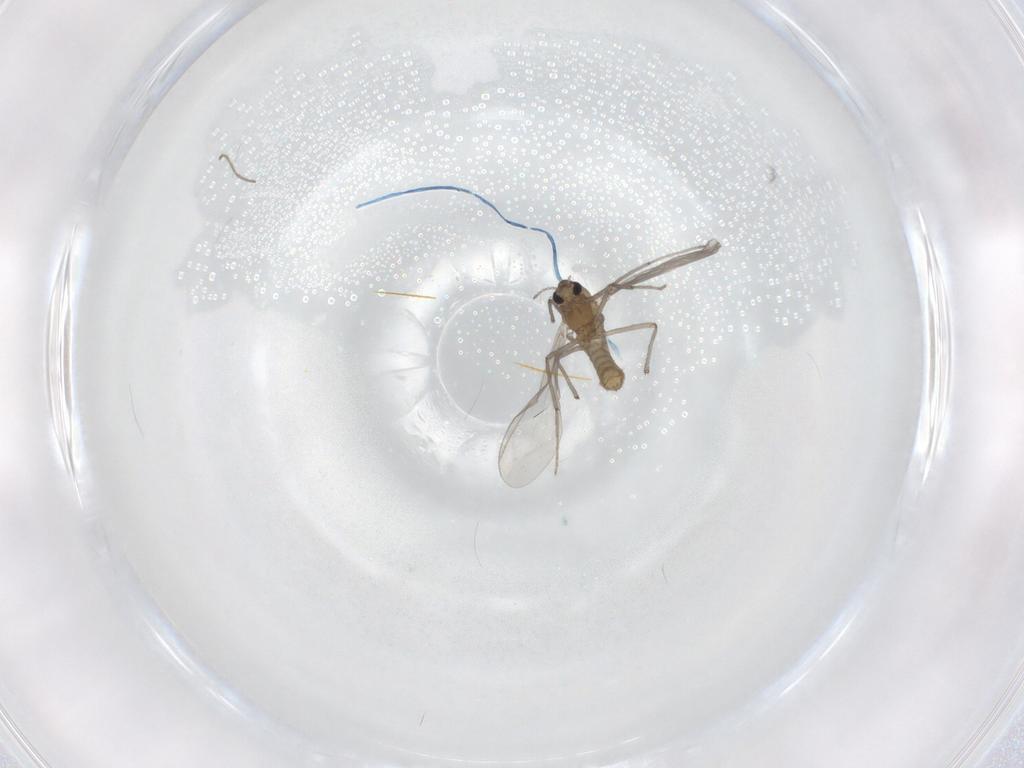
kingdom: Animalia
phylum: Arthropoda
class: Insecta
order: Diptera
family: Chironomidae
